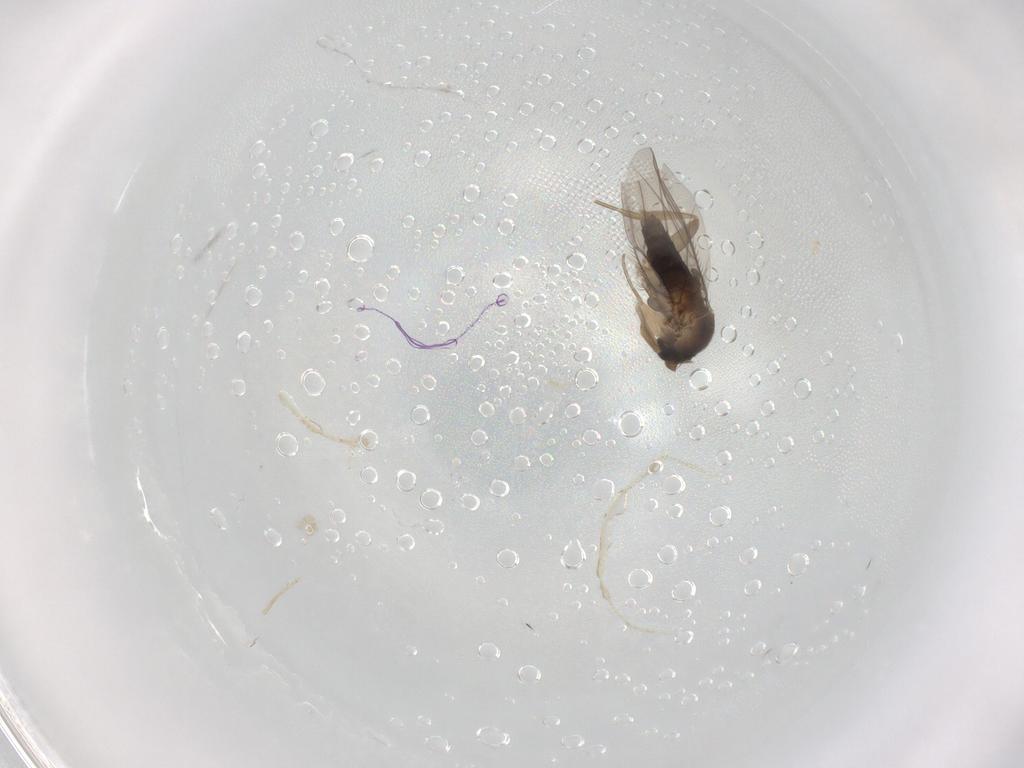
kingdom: Animalia
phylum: Arthropoda
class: Insecta
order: Diptera
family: Phoridae
